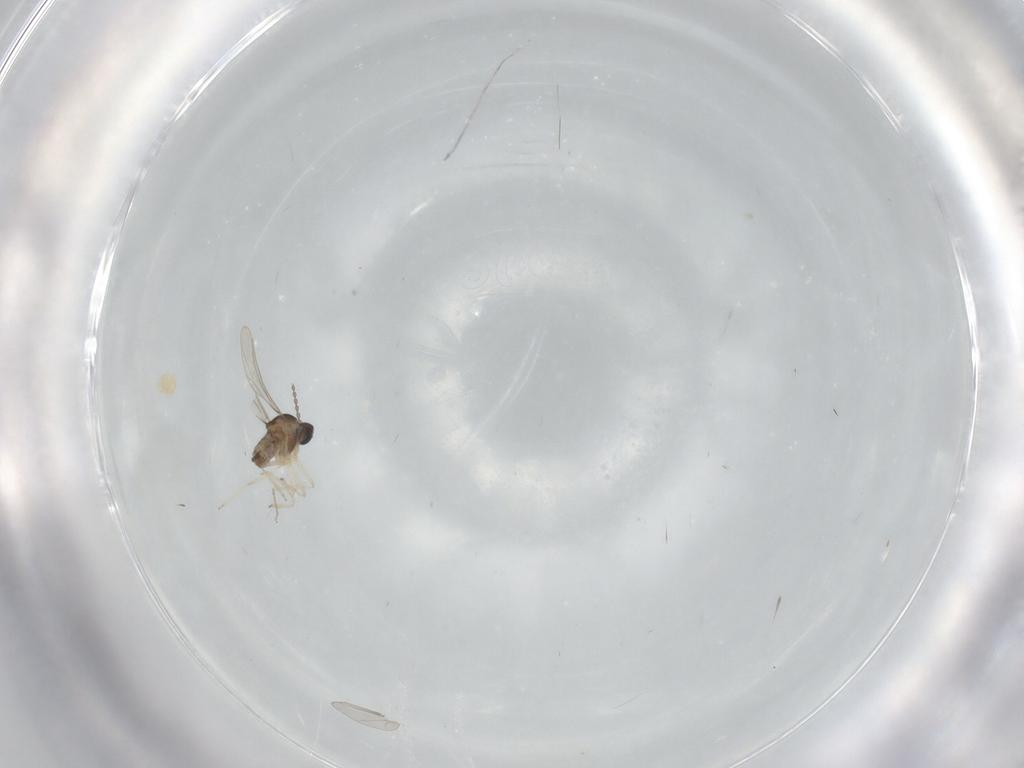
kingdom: Animalia
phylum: Arthropoda
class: Insecta
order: Diptera
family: Cecidomyiidae
